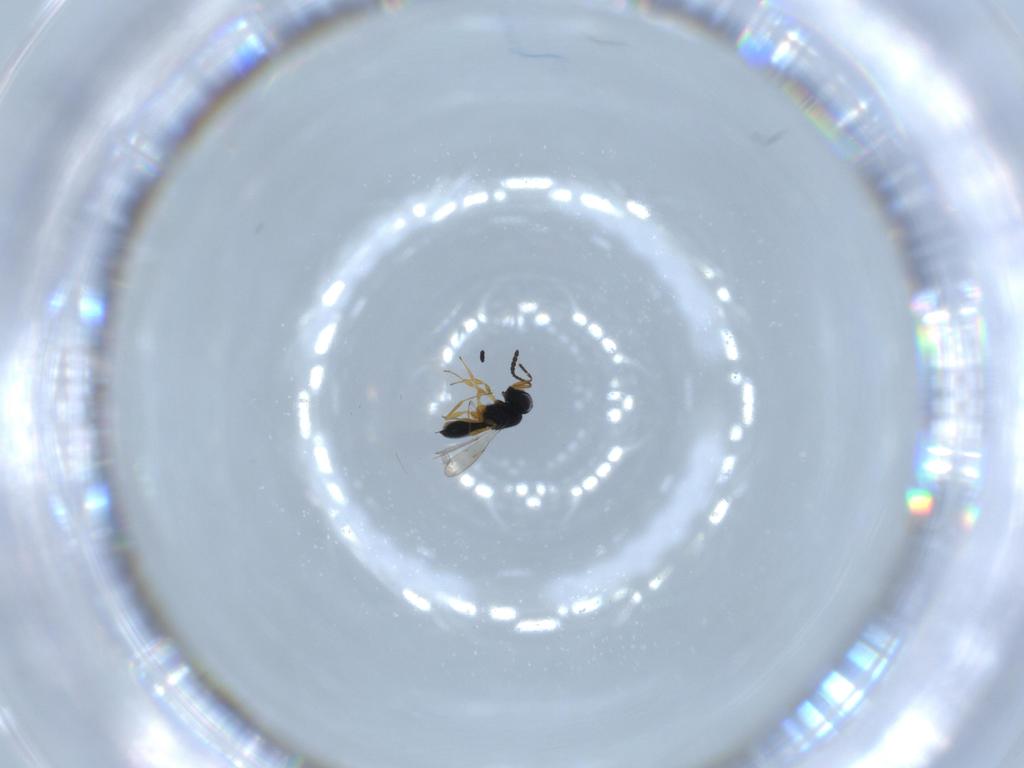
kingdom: Animalia
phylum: Arthropoda
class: Insecta
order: Hymenoptera
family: Scelionidae
